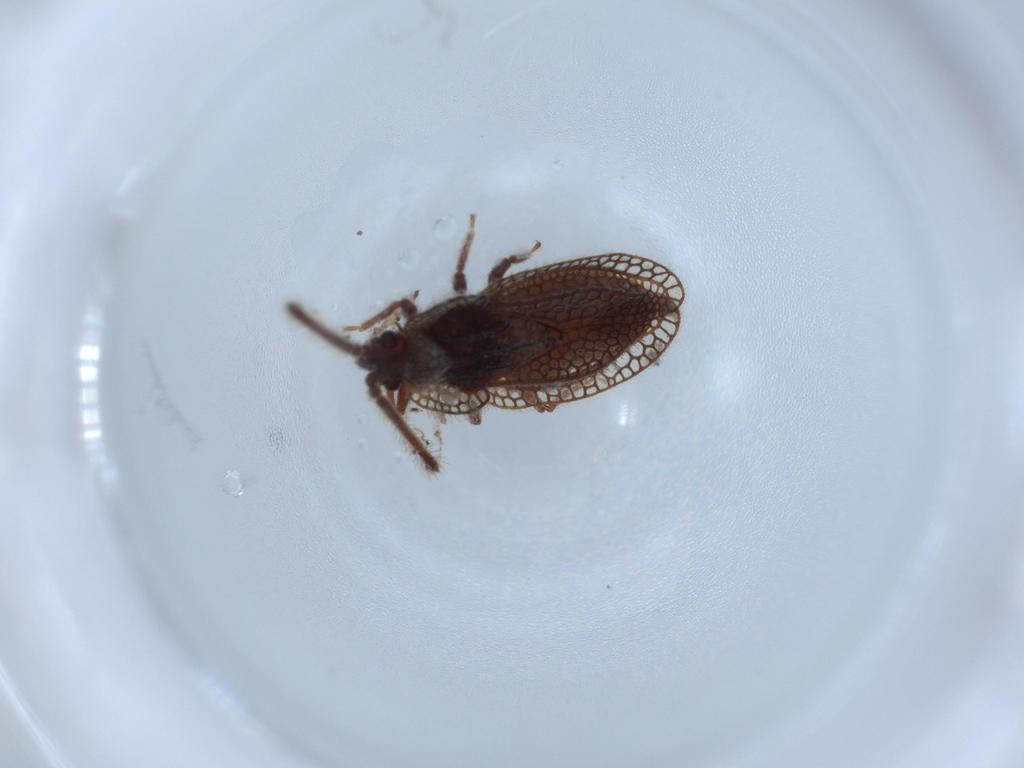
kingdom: Animalia
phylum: Arthropoda
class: Insecta
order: Hemiptera
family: Tingidae
